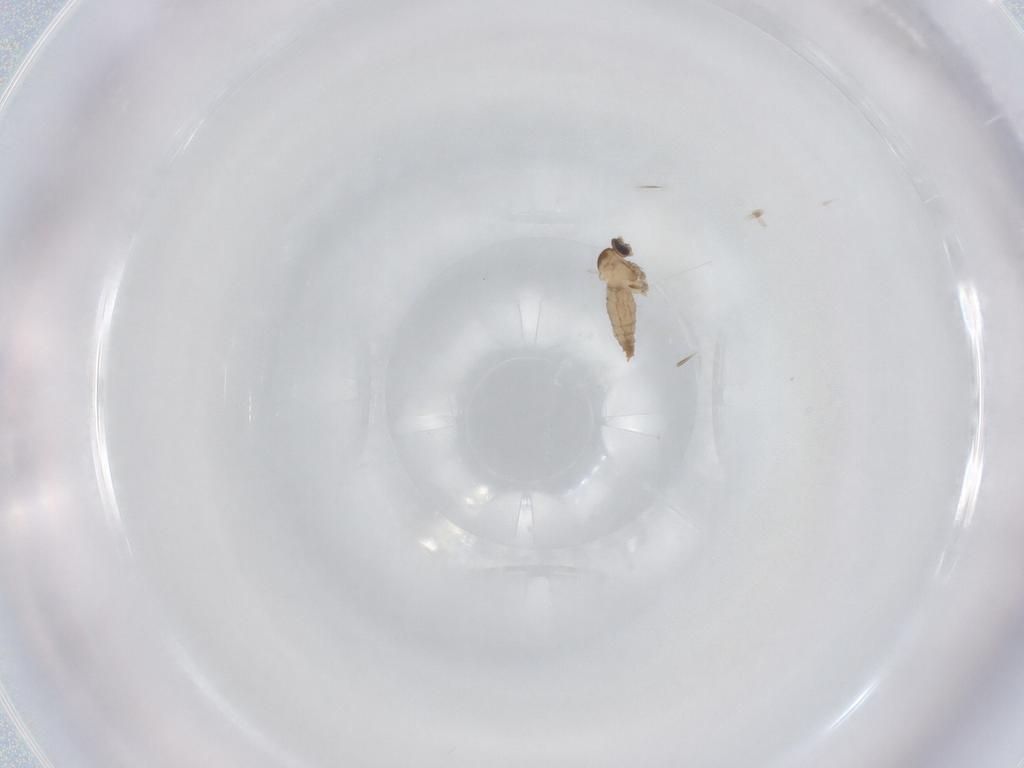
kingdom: Animalia
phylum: Arthropoda
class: Insecta
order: Diptera
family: Cecidomyiidae
